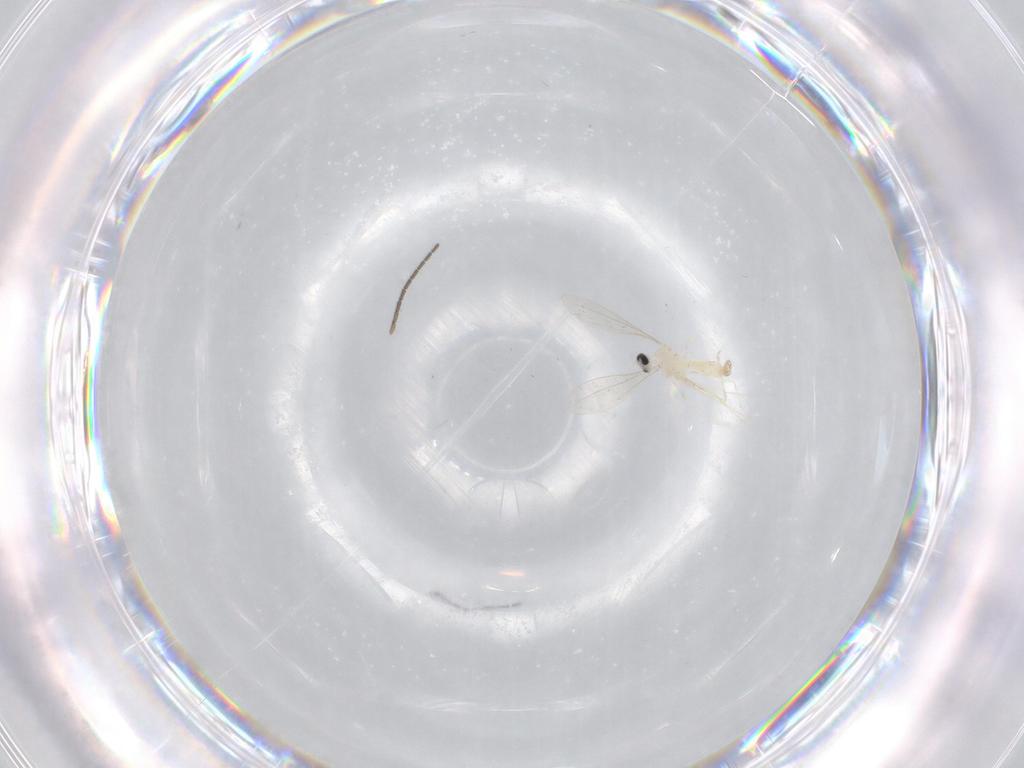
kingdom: Animalia
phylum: Arthropoda
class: Insecta
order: Diptera
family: Cecidomyiidae
